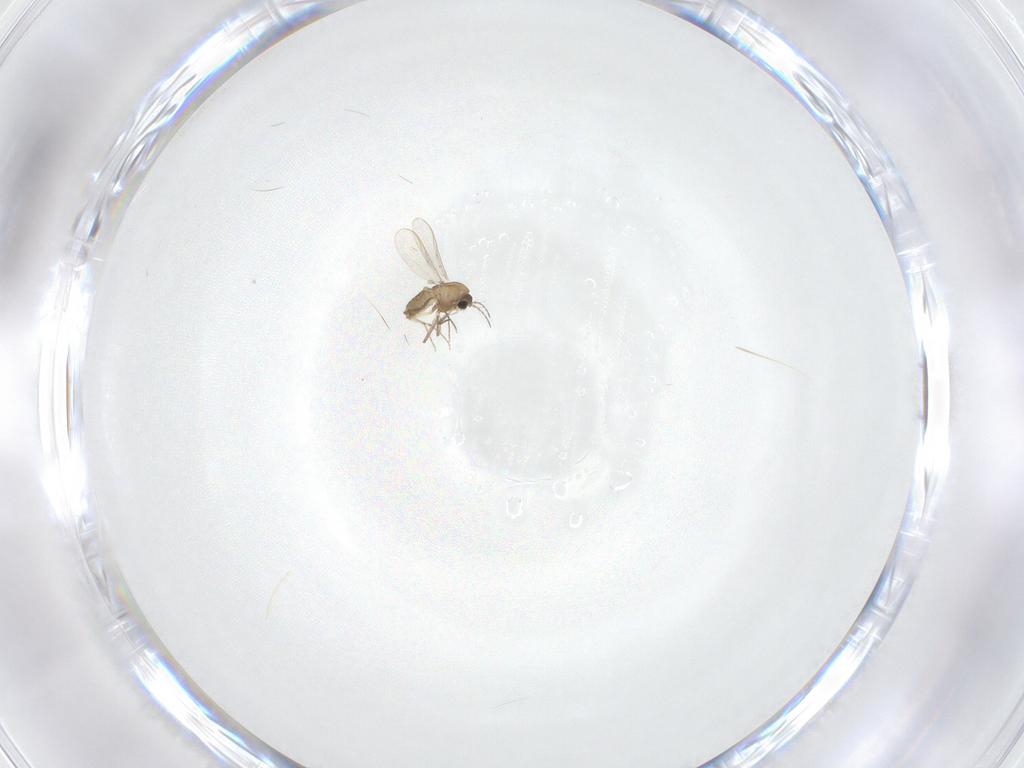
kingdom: Animalia
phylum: Arthropoda
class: Insecta
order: Diptera
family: Chironomidae
